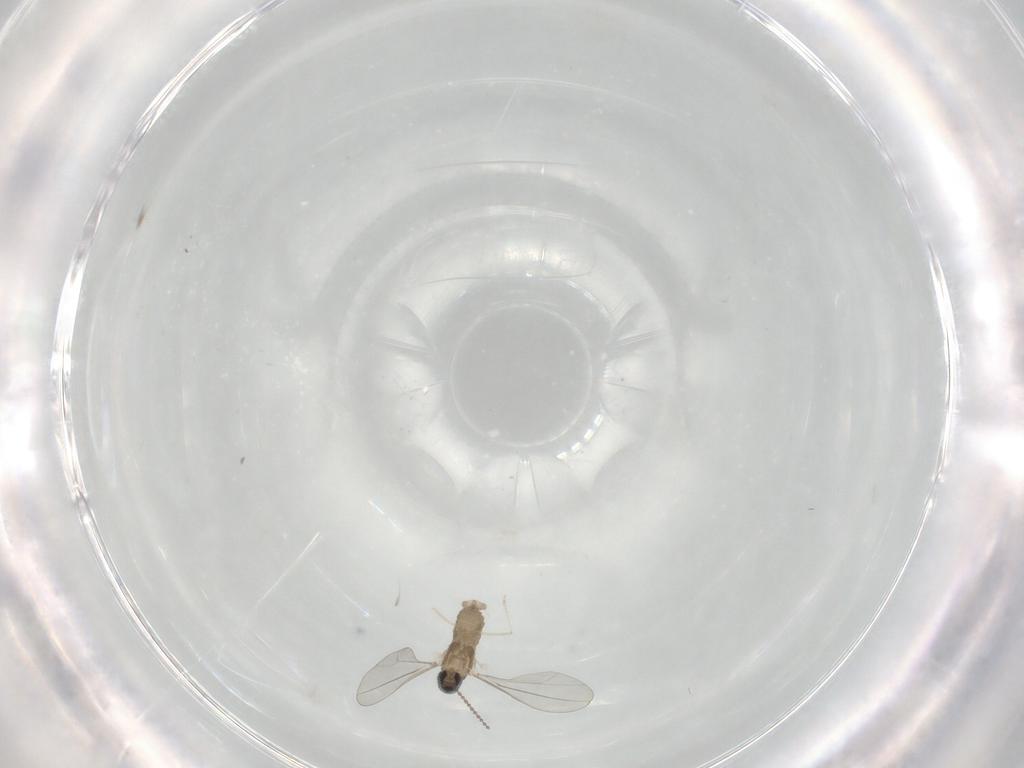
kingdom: Animalia
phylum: Arthropoda
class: Insecta
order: Diptera
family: Cecidomyiidae
